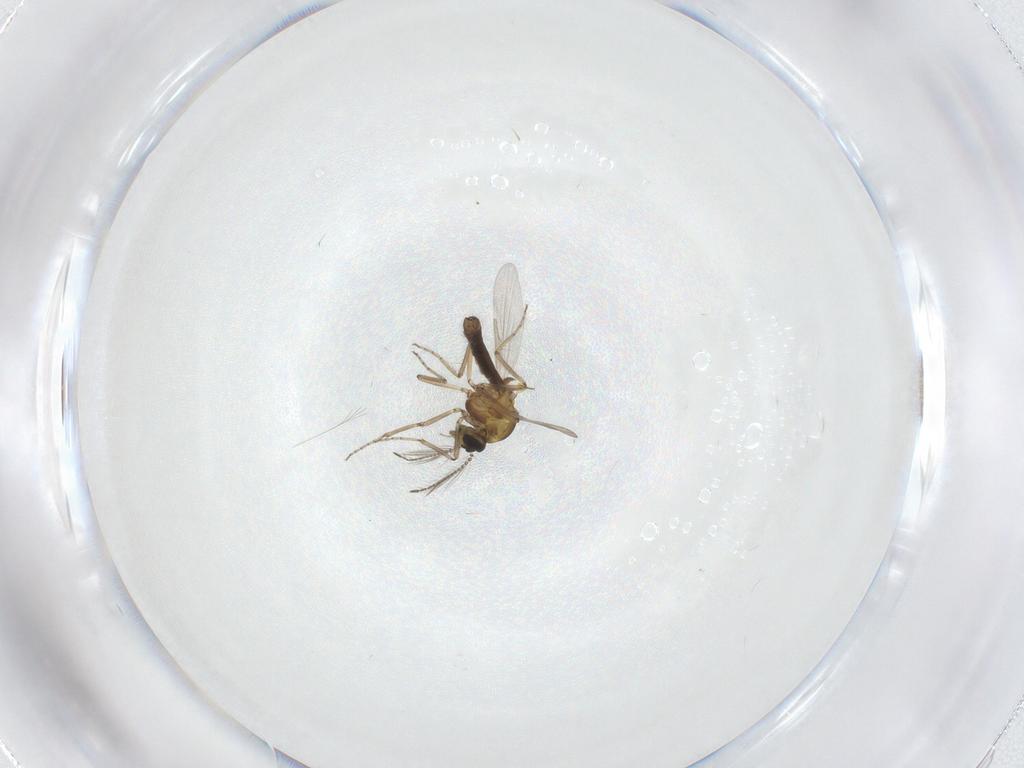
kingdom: Animalia
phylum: Arthropoda
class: Insecta
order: Diptera
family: Ceratopogonidae
